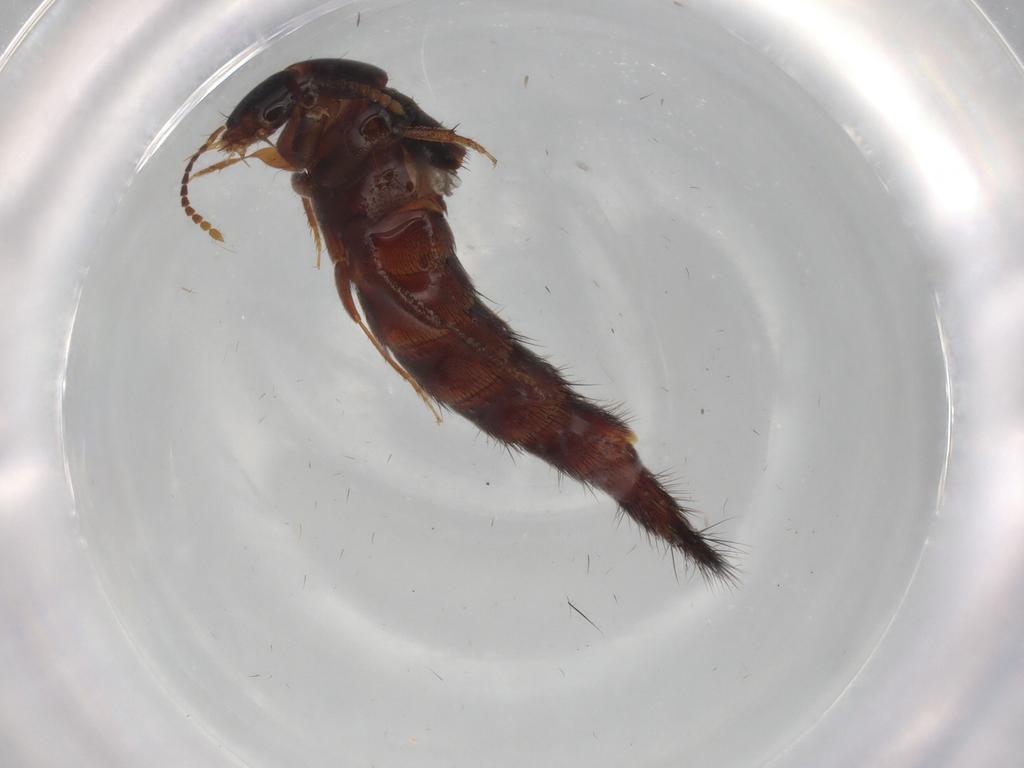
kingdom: Animalia
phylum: Arthropoda
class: Insecta
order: Coleoptera
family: Staphylinidae
